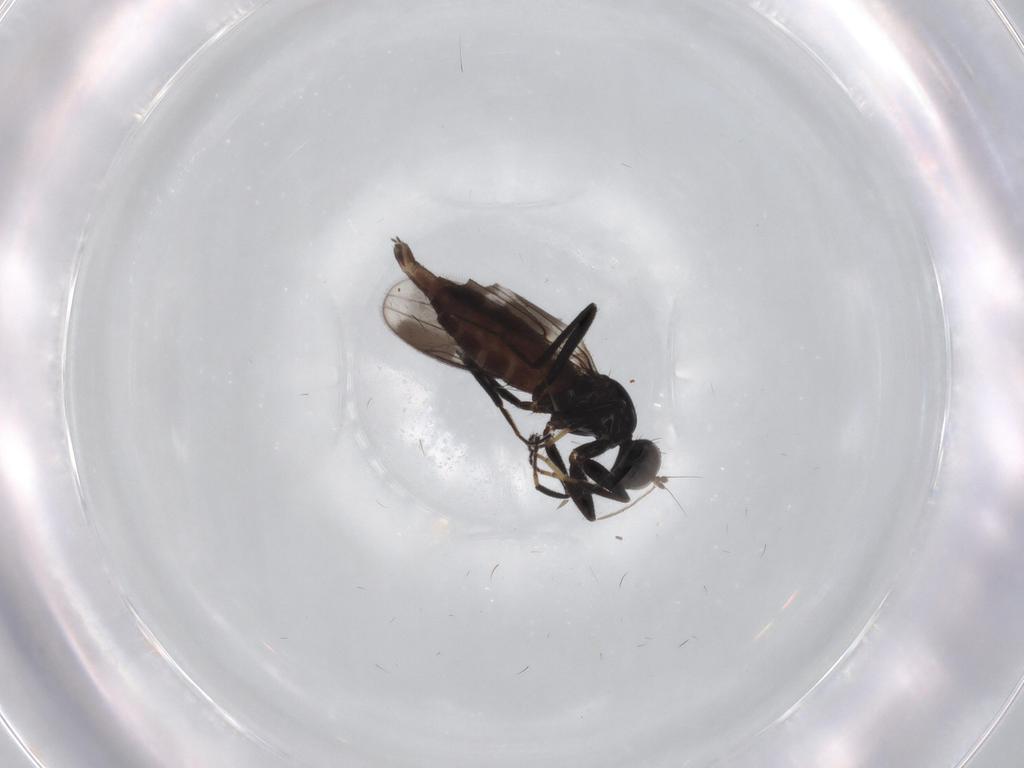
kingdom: Animalia
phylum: Arthropoda
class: Insecta
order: Diptera
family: Hybotidae
